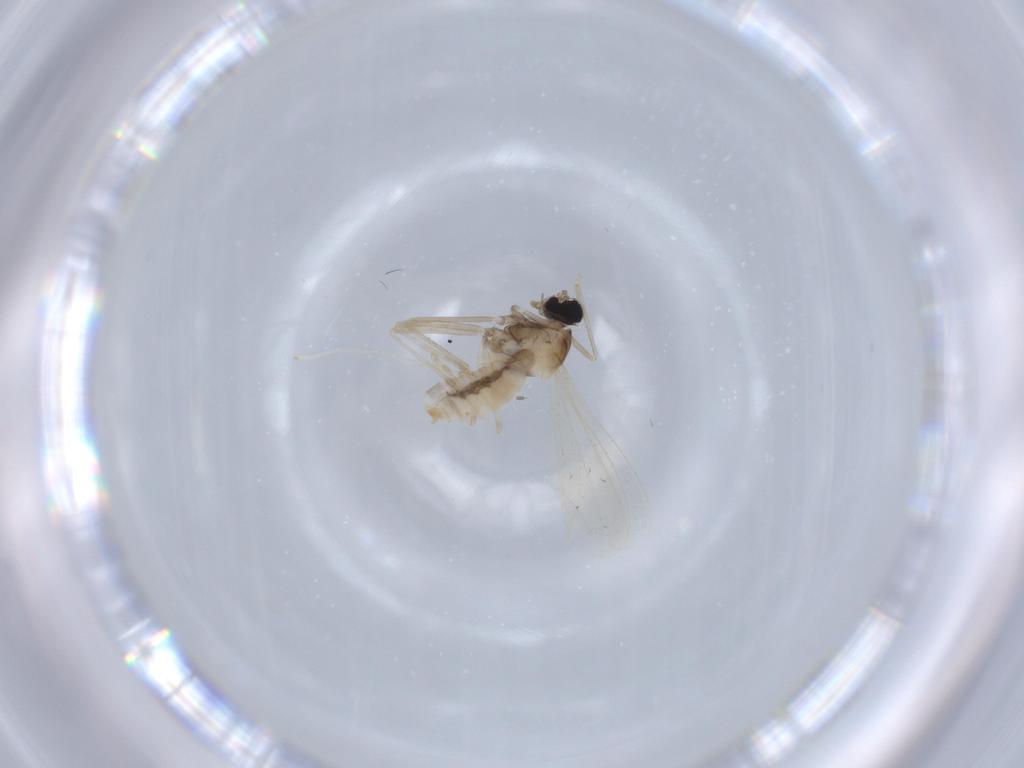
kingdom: Animalia
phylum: Arthropoda
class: Insecta
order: Diptera
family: Cecidomyiidae
